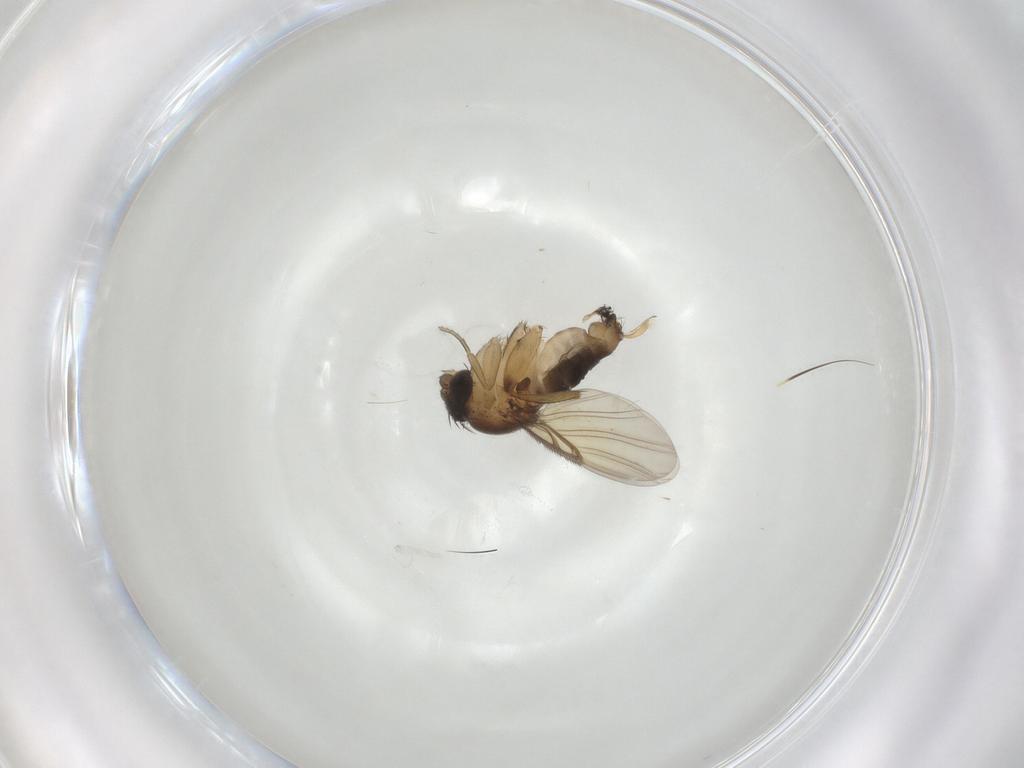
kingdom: Animalia
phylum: Arthropoda
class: Insecta
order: Diptera
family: Phoridae
